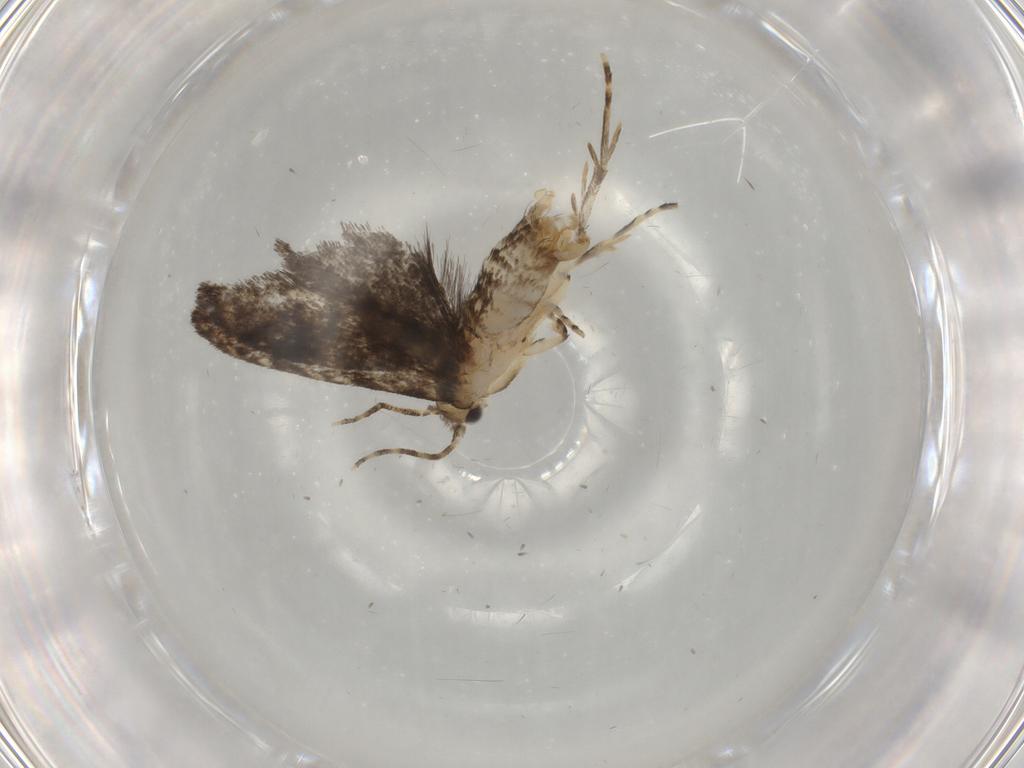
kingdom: Animalia
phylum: Arthropoda
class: Insecta
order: Lepidoptera
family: Tineidae
